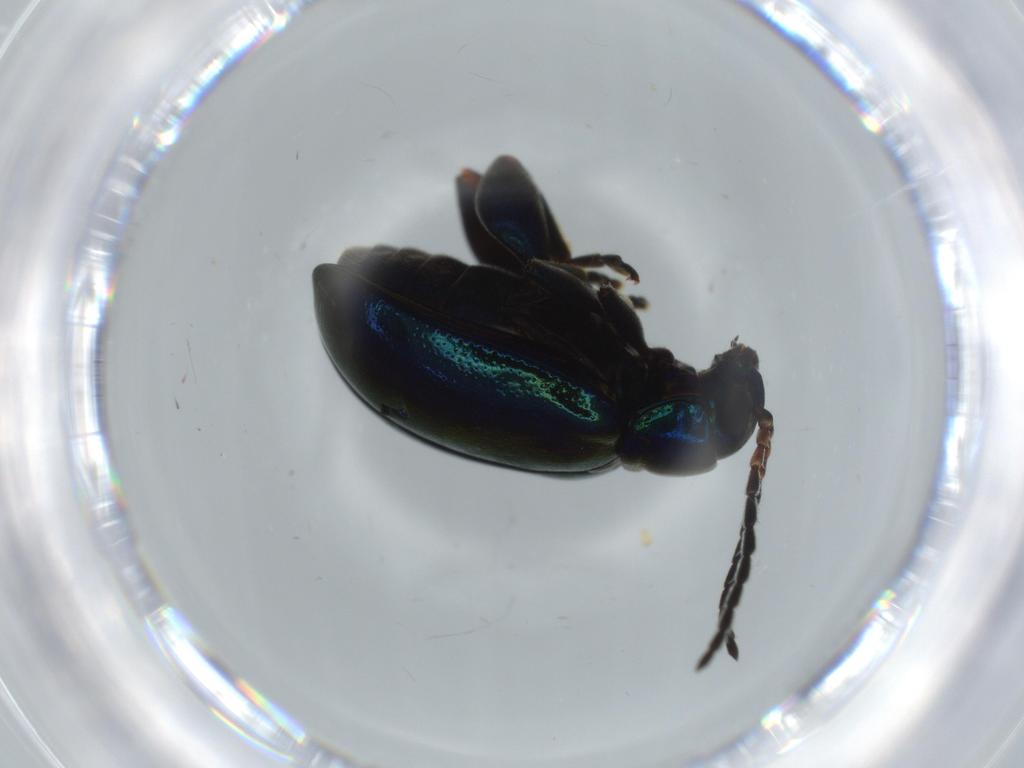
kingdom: Animalia
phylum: Arthropoda
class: Insecta
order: Coleoptera
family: Chrysomelidae
